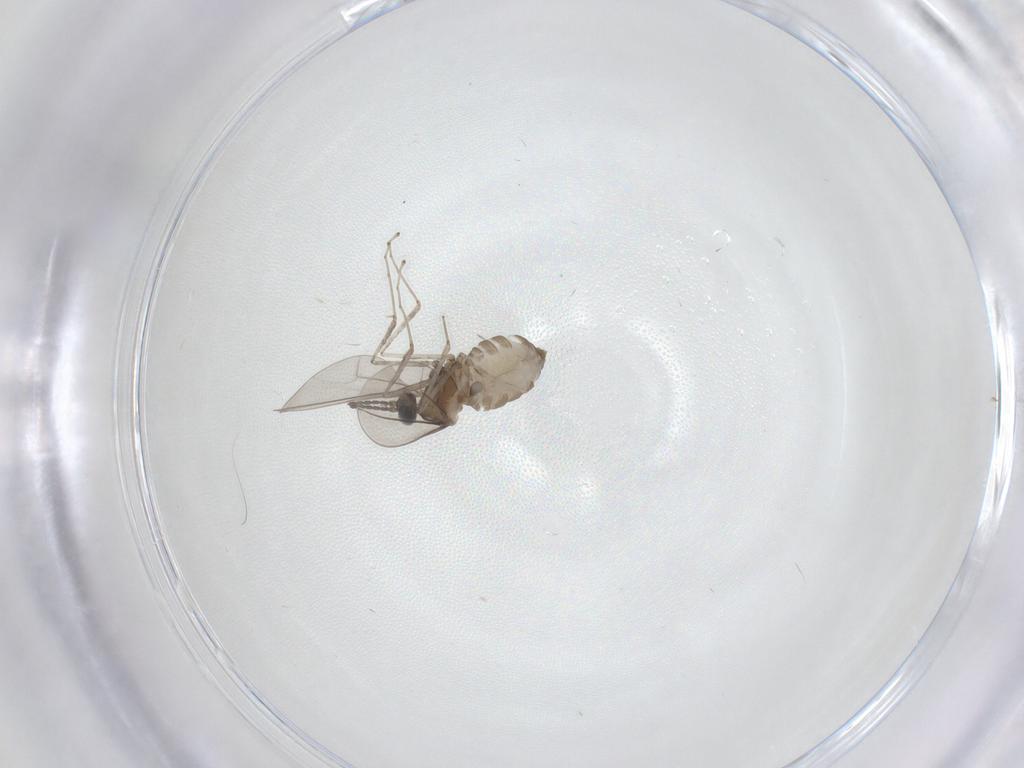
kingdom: Animalia
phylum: Arthropoda
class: Insecta
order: Diptera
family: Cecidomyiidae
